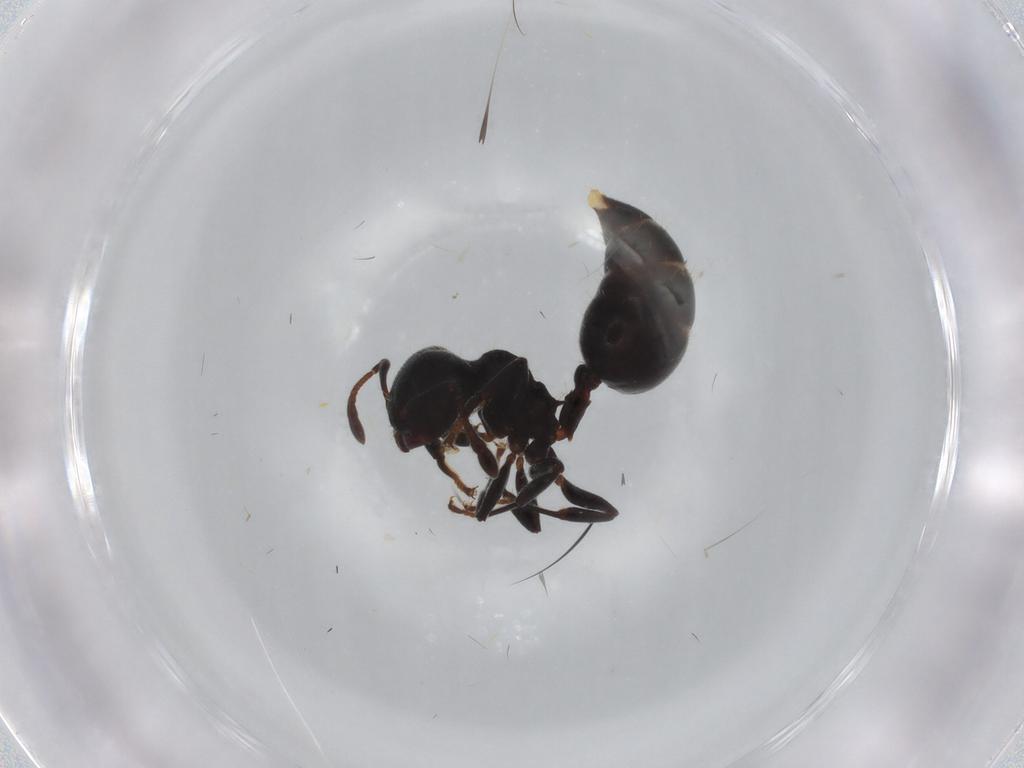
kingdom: Animalia
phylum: Arthropoda
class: Insecta
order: Hymenoptera
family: Formicidae
